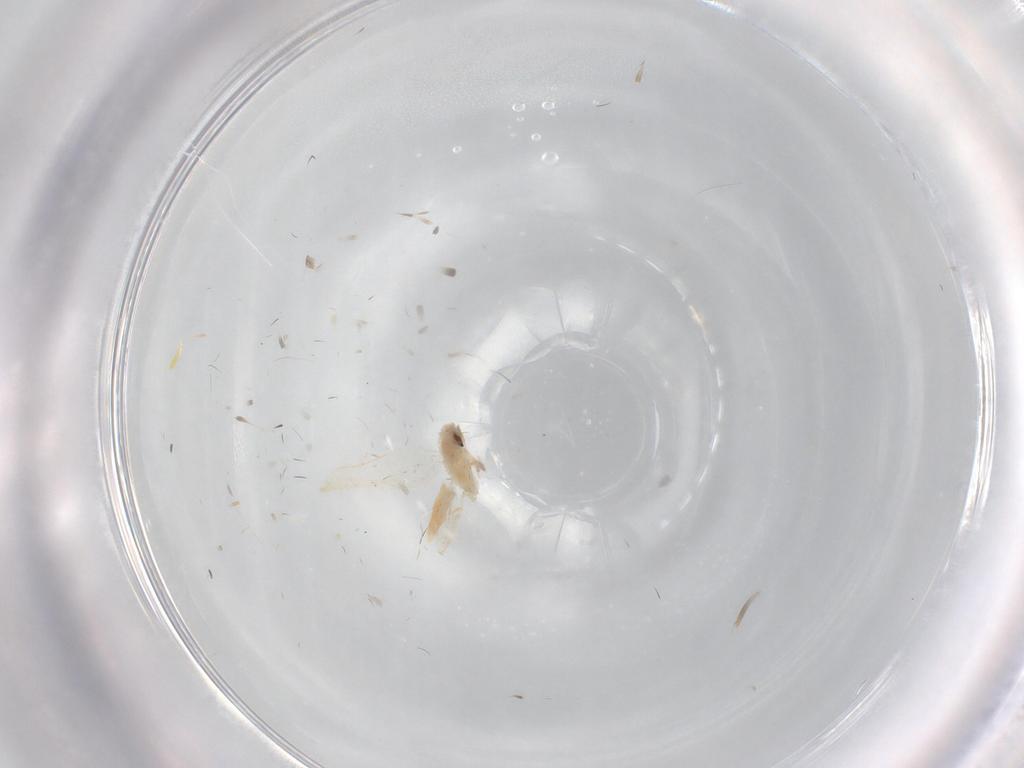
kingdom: Animalia
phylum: Arthropoda
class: Insecta
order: Hemiptera
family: Aleyrodidae
